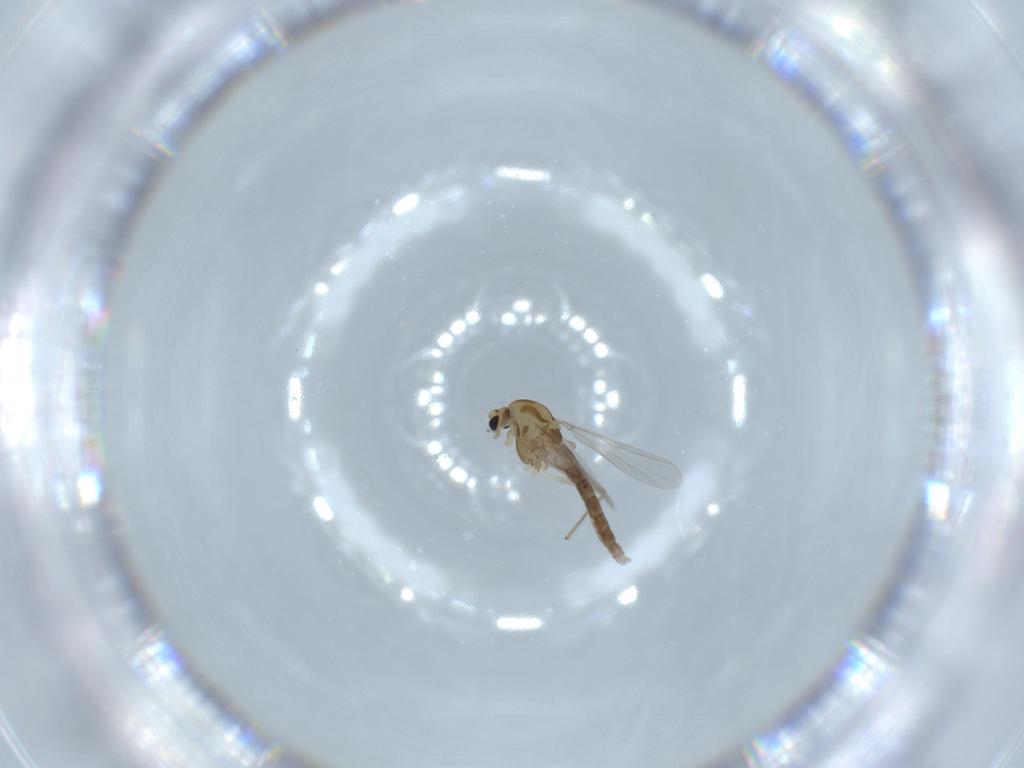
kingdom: Animalia
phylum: Arthropoda
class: Insecta
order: Diptera
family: Chironomidae
